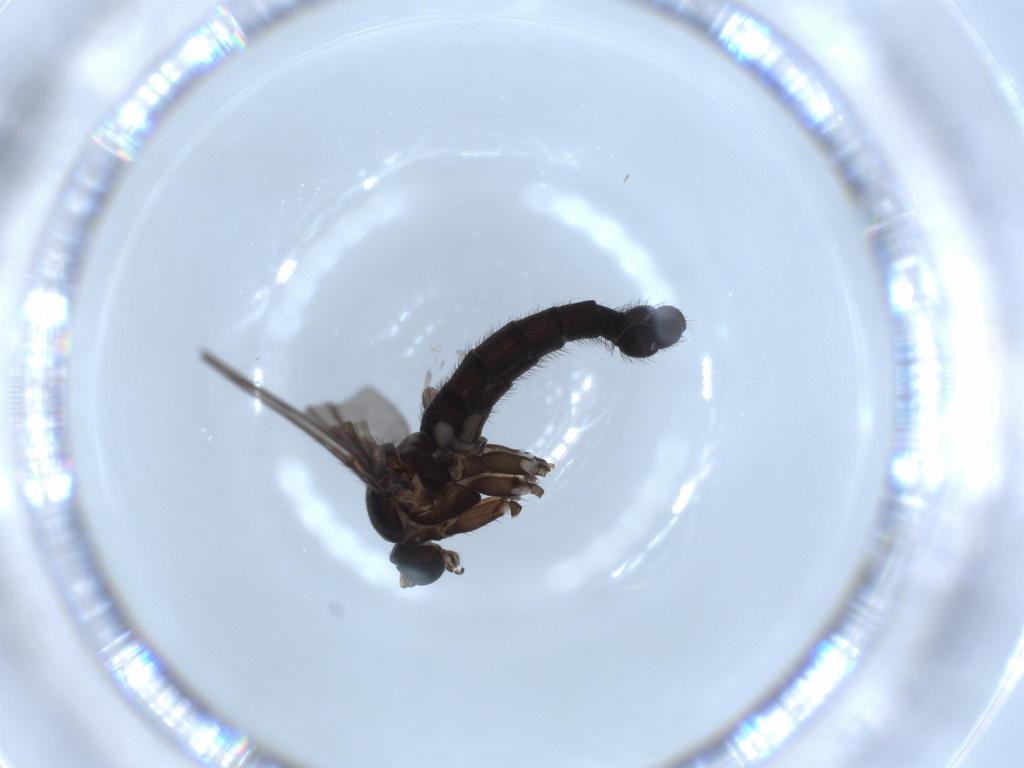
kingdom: Animalia
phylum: Arthropoda
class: Insecta
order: Diptera
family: Sciaridae
